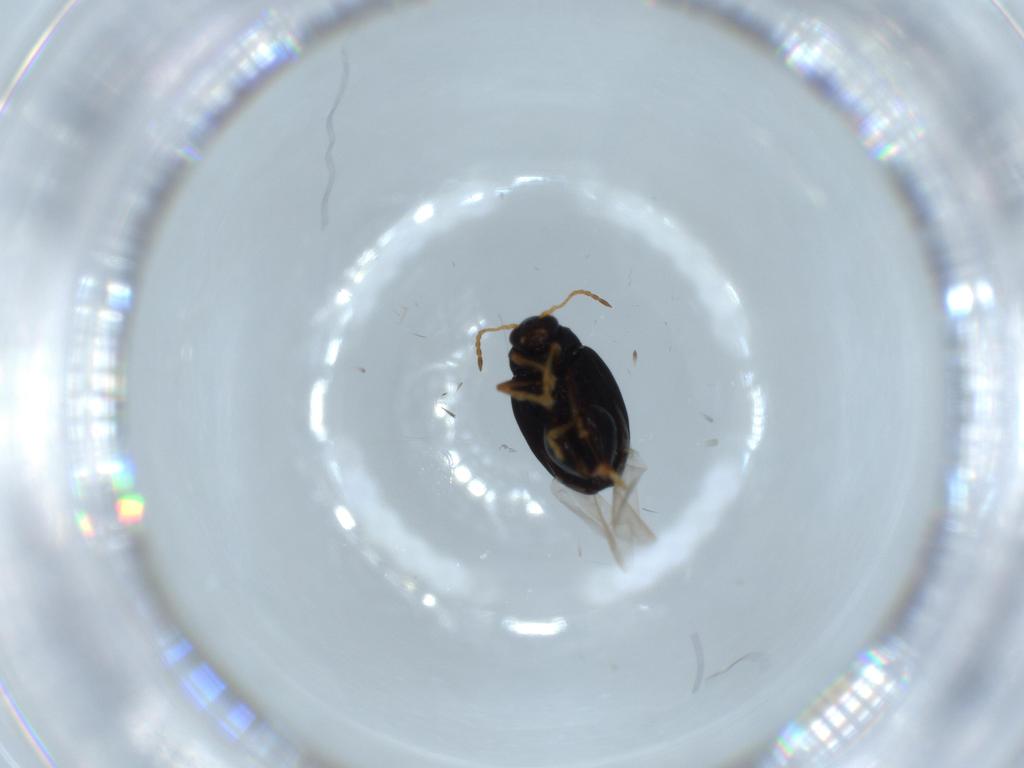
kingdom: Animalia
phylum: Arthropoda
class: Insecta
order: Coleoptera
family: Chrysomelidae
